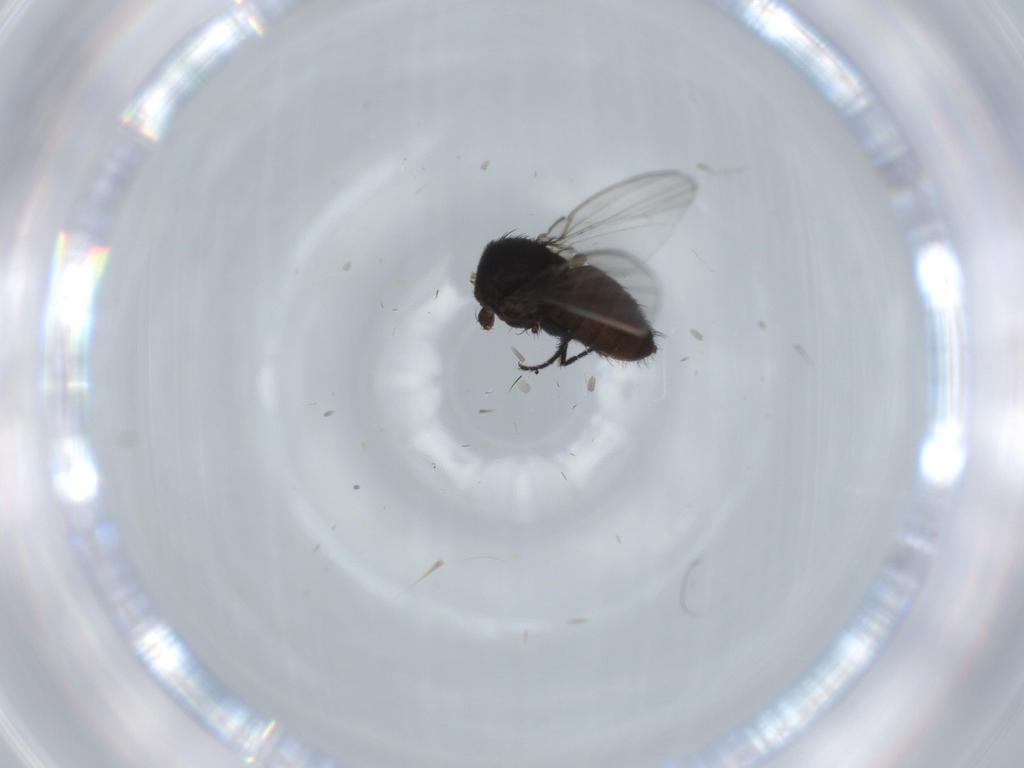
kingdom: Animalia
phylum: Arthropoda
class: Insecta
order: Diptera
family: Milichiidae
